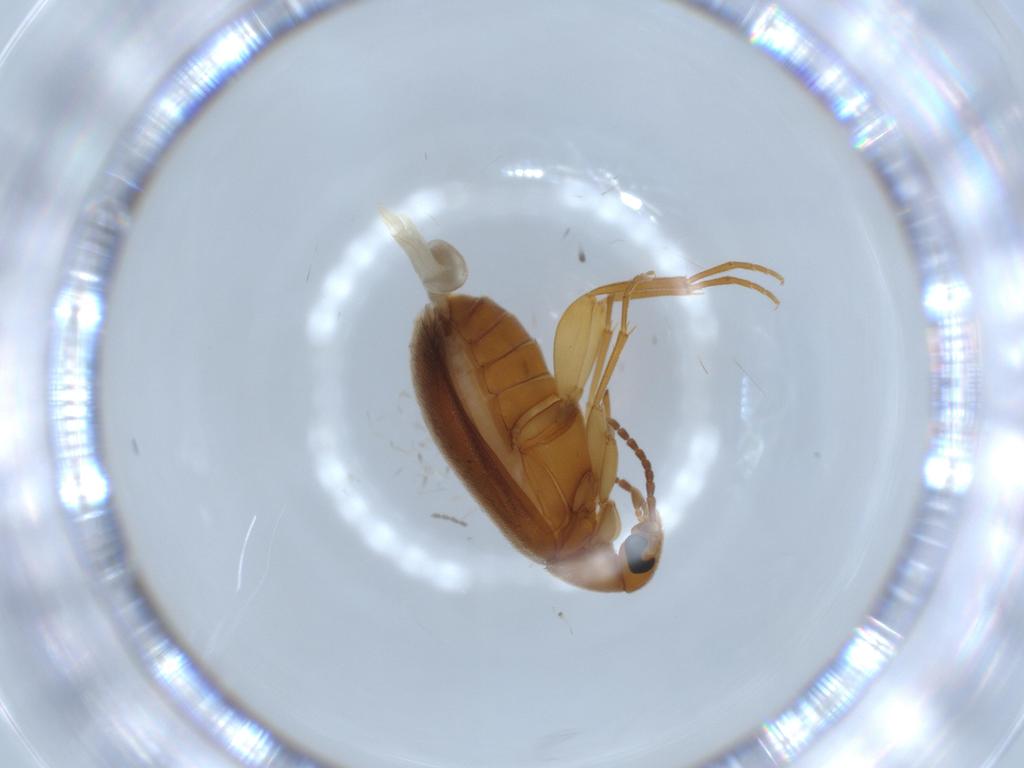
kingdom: Animalia
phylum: Arthropoda
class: Insecta
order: Coleoptera
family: Scraptiidae
